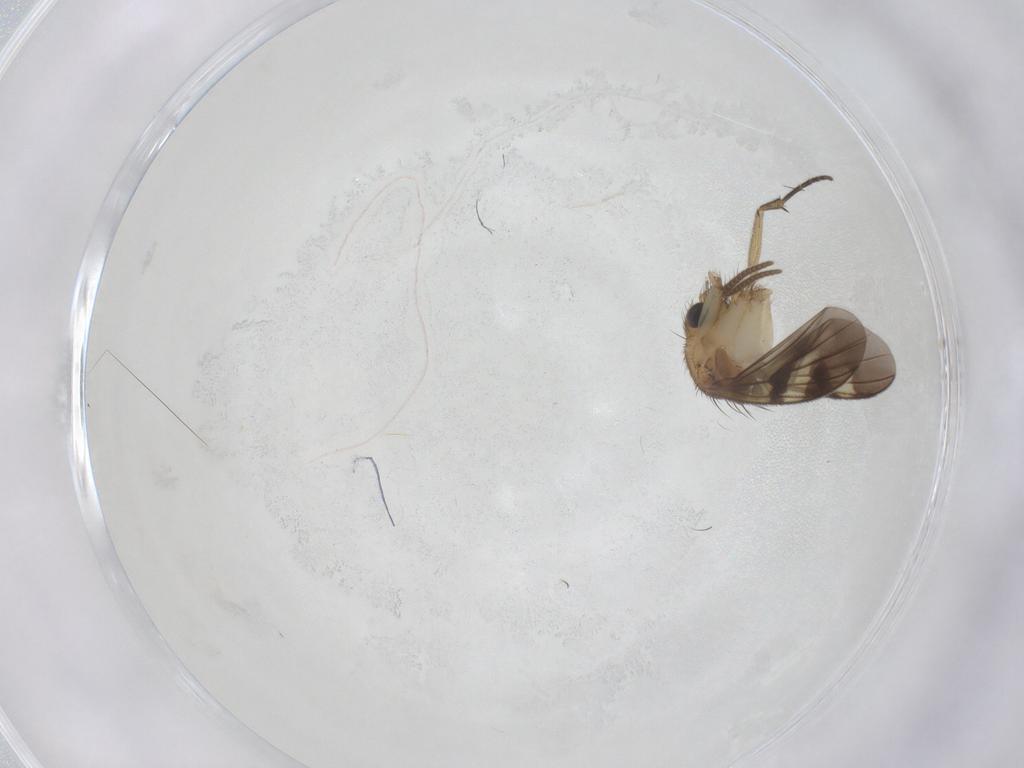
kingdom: Animalia
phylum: Arthropoda
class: Insecta
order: Diptera
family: Mycetophilidae
